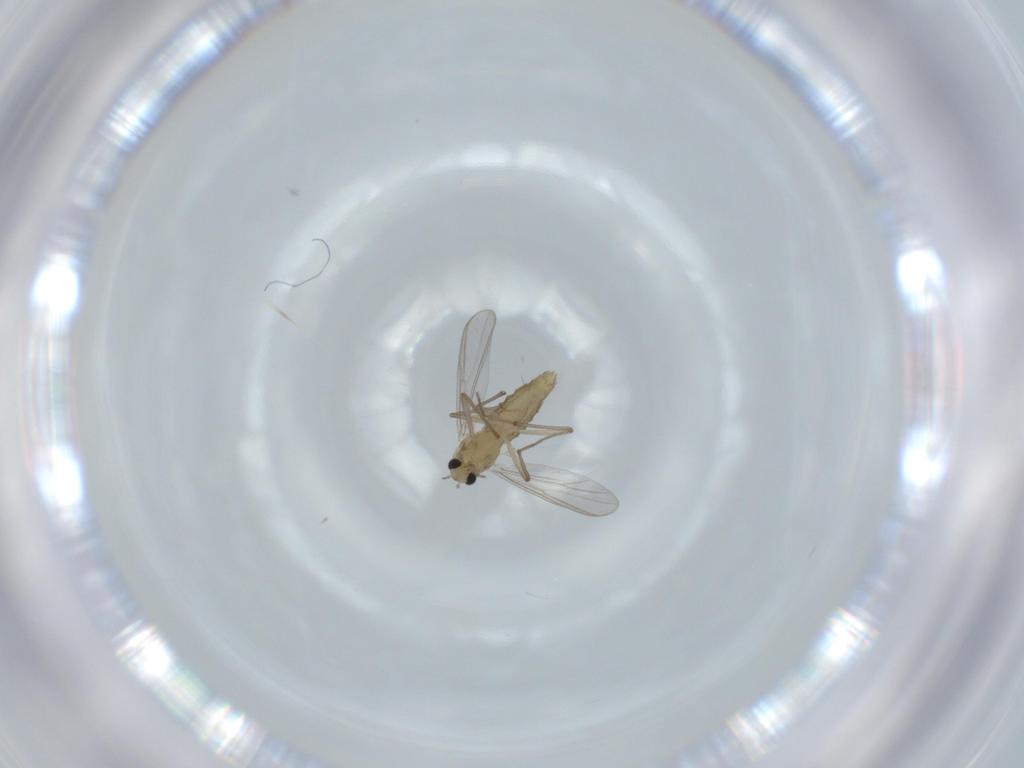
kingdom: Animalia
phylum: Arthropoda
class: Insecta
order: Diptera
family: Chironomidae
